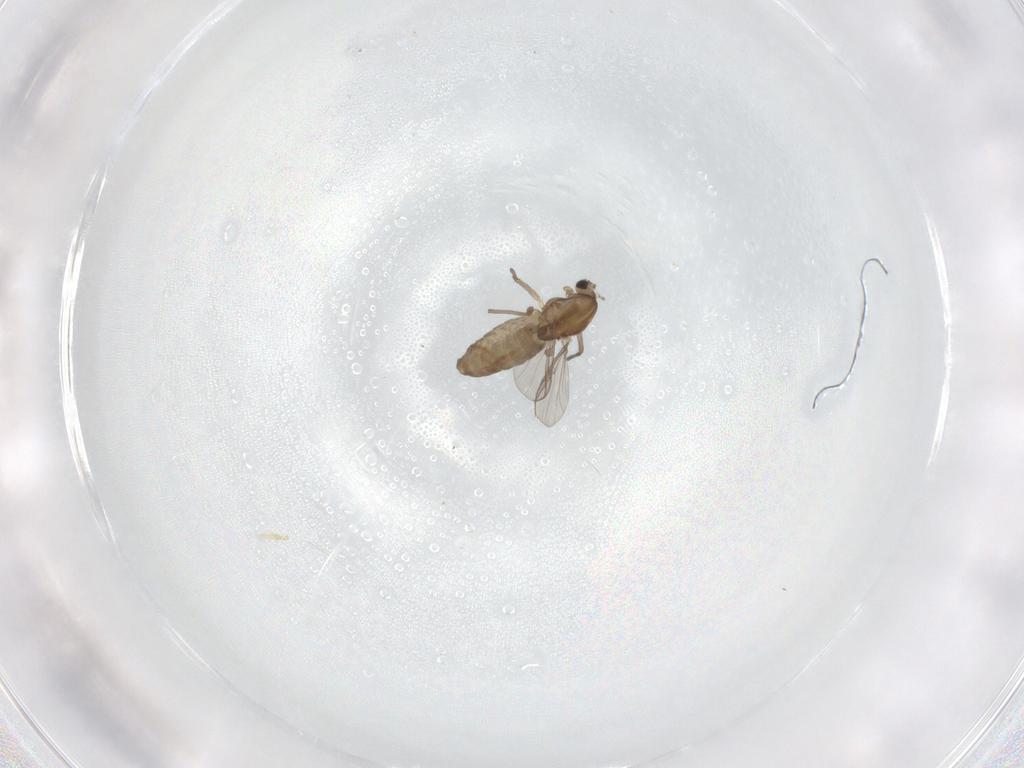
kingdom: Animalia
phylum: Arthropoda
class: Insecta
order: Diptera
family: Chironomidae
